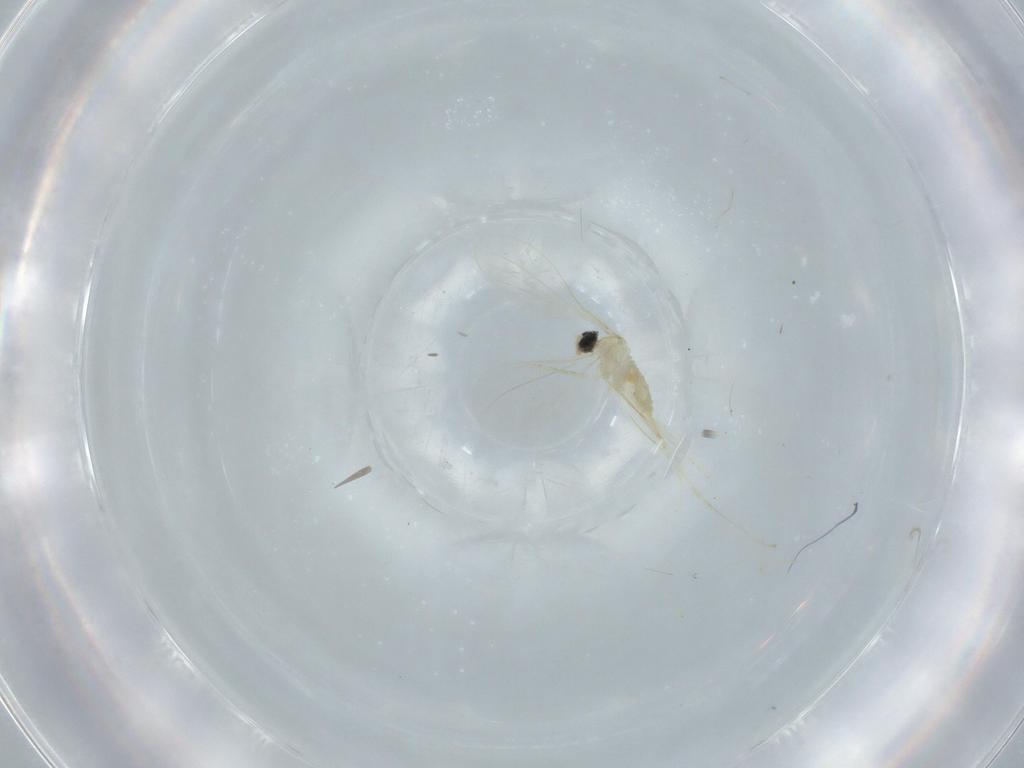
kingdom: Animalia
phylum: Arthropoda
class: Insecta
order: Diptera
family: Cecidomyiidae
